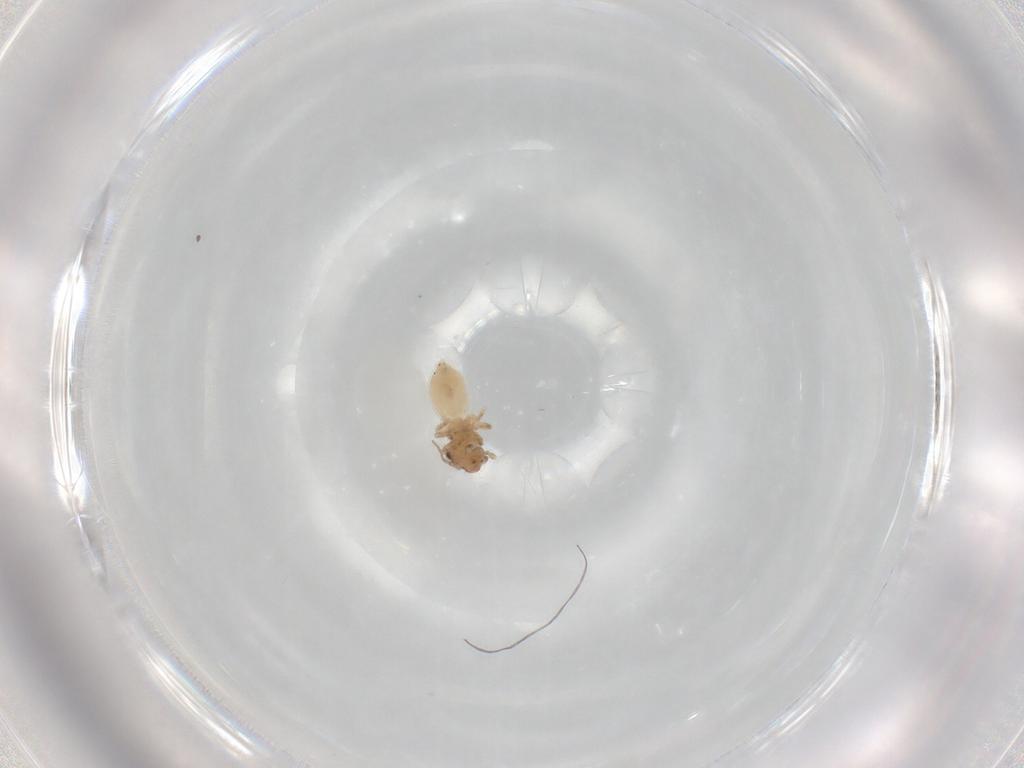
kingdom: Animalia
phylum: Arthropoda
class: Insecta
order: Psocodea
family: Lepidopsocidae
